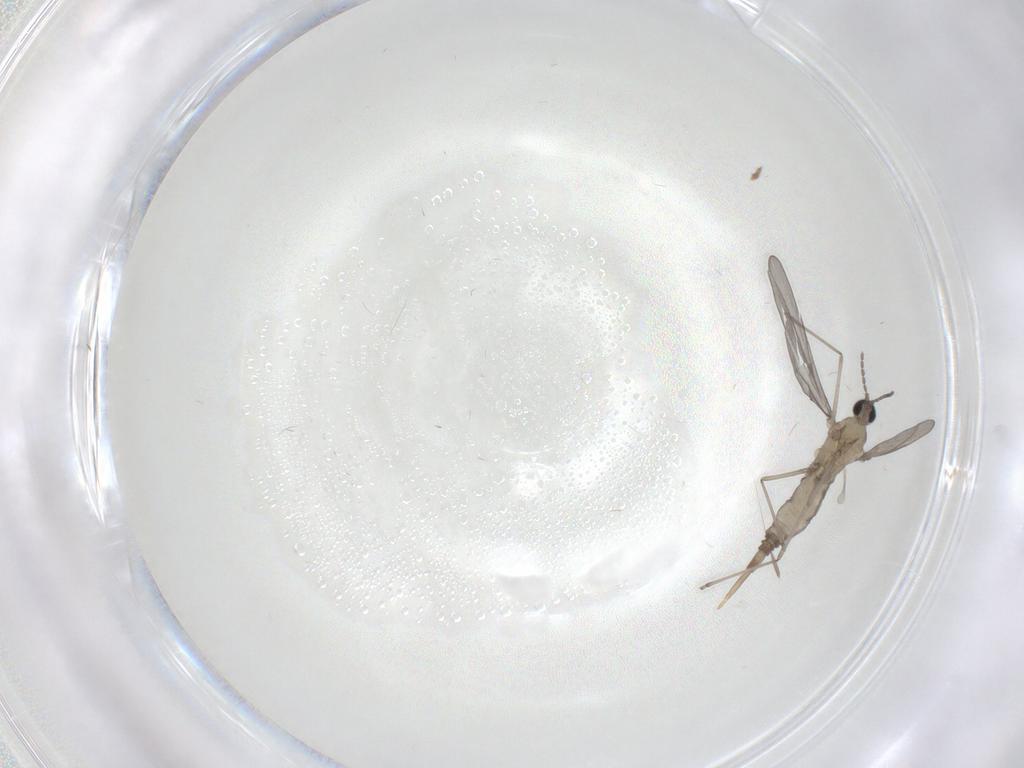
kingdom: Animalia
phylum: Arthropoda
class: Insecta
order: Diptera
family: Cecidomyiidae
